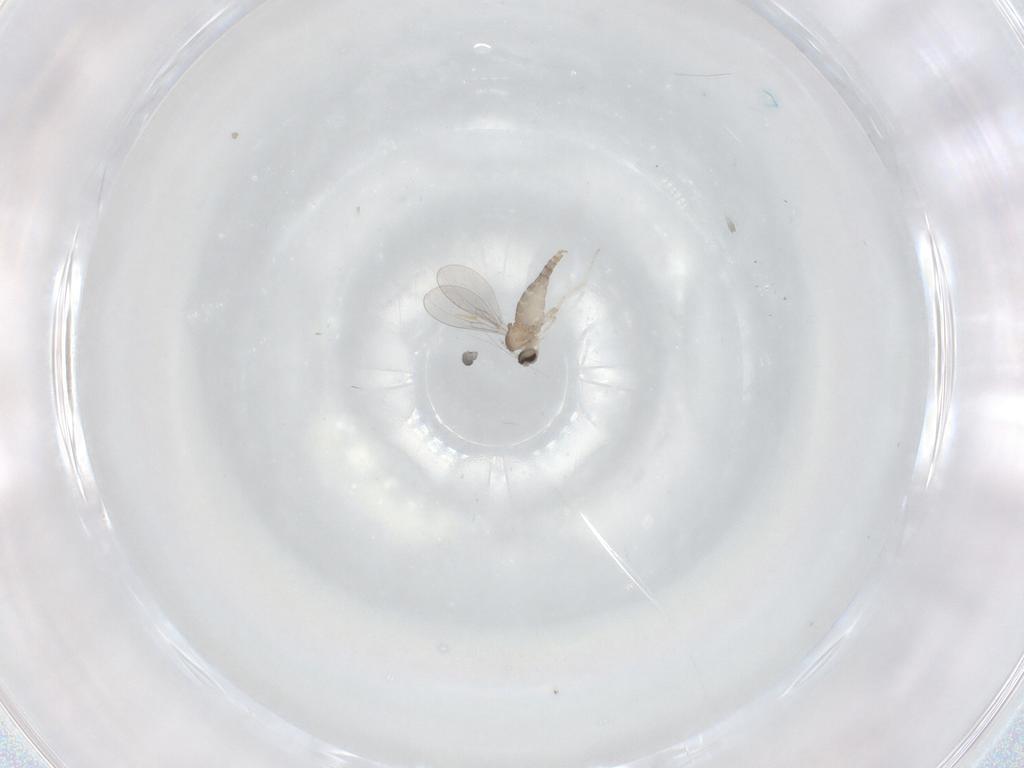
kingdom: Animalia
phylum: Arthropoda
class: Insecta
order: Diptera
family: Cecidomyiidae
